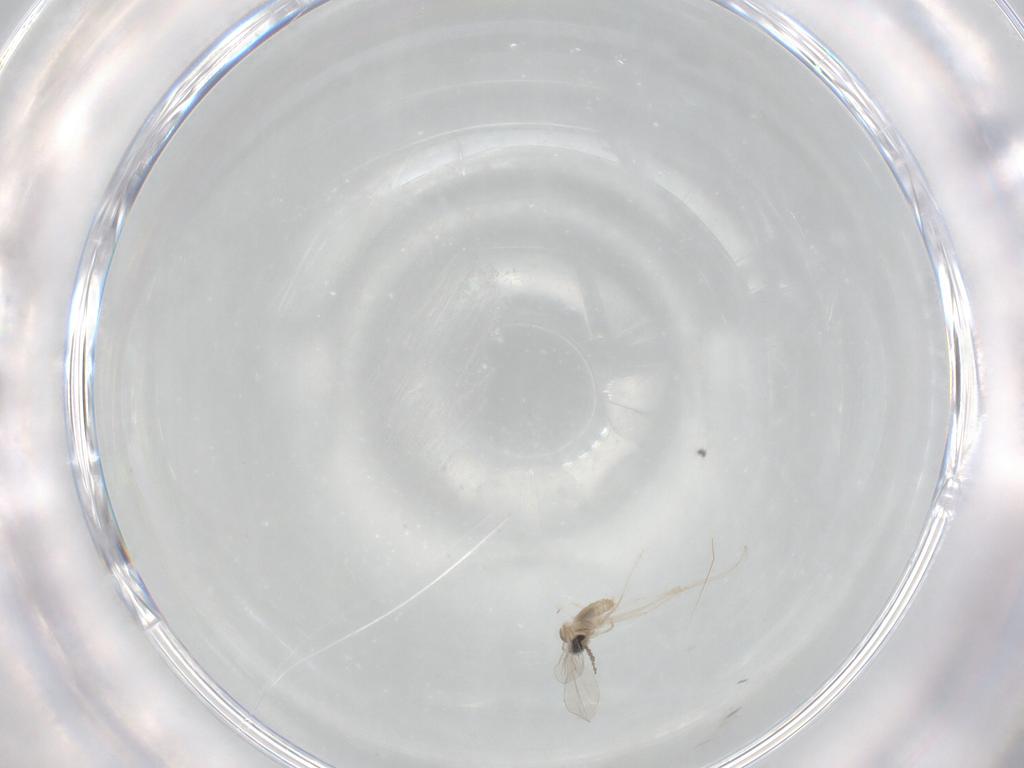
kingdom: Animalia
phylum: Arthropoda
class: Insecta
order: Diptera
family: Cecidomyiidae
